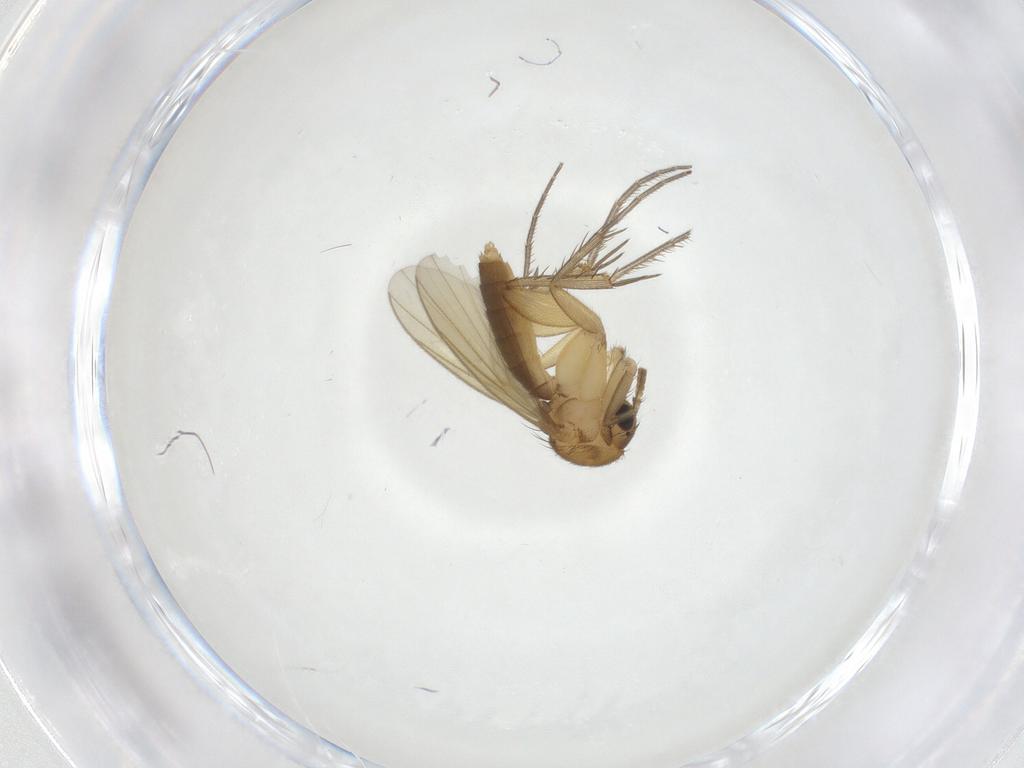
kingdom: Animalia
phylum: Arthropoda
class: Insecta
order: Diptera
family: Mycetophilidae
